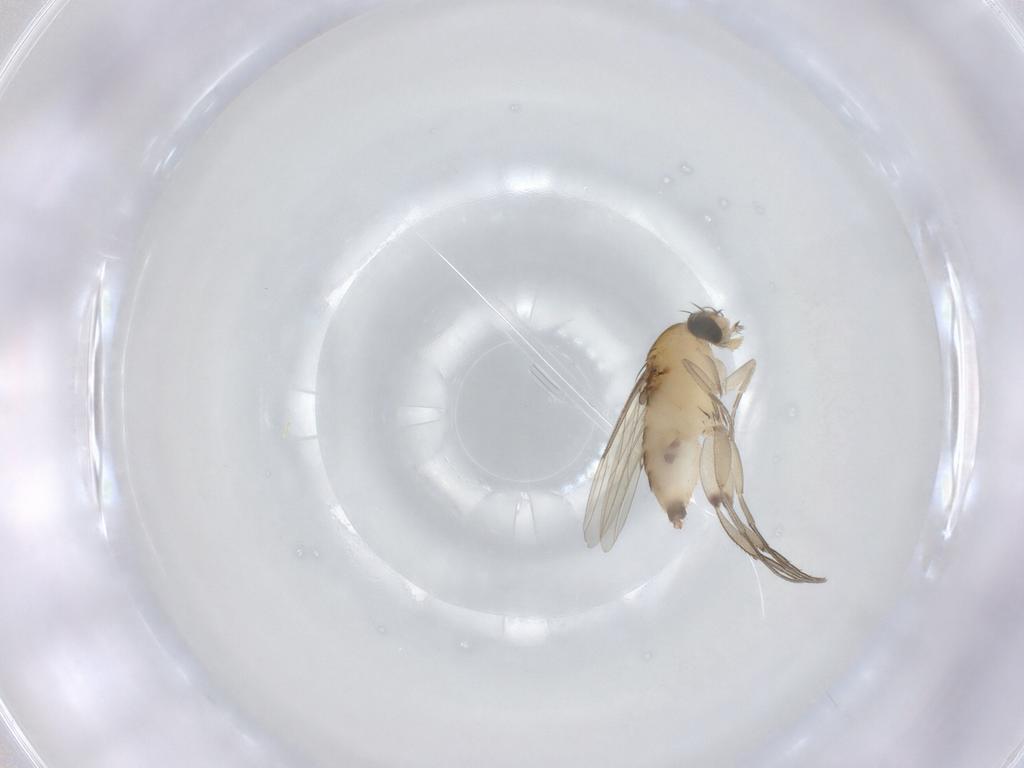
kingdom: Animalia
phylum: Arthropoda
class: Insecta
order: Diptera
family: Phoridae
